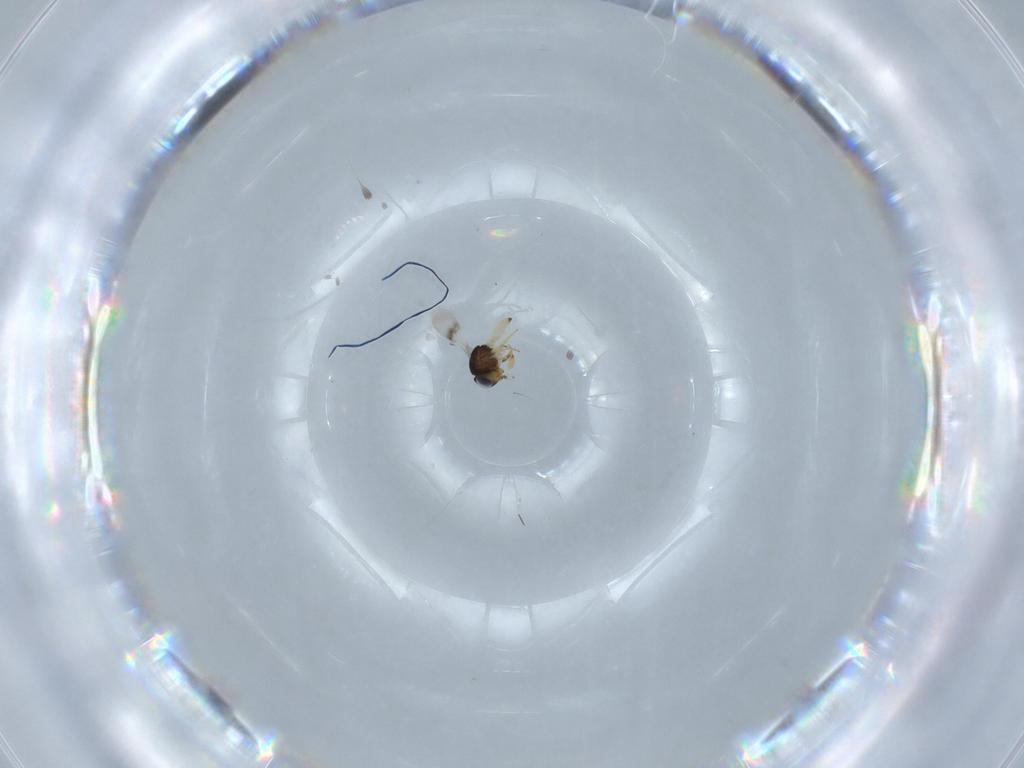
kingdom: Animalia
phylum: Arthropoda
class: Insecta
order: Hymenoptera
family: Scelionidae
